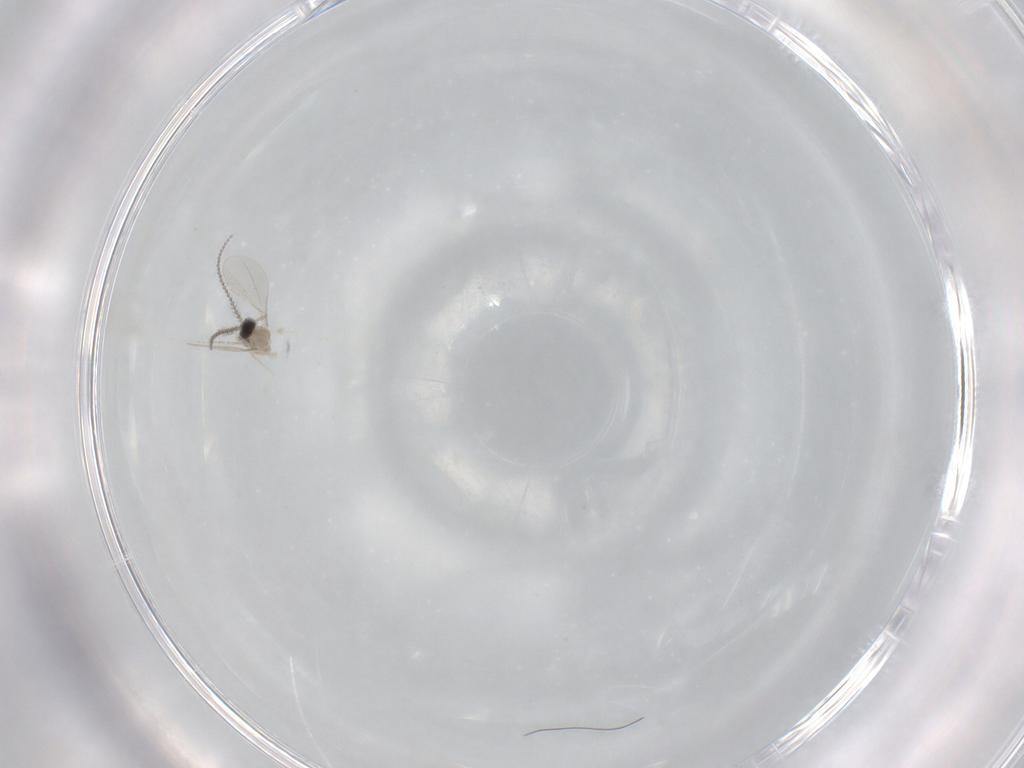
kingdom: Animalia
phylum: Arthropoda
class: Insecta
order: Diptera
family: Cecidomyiidae
